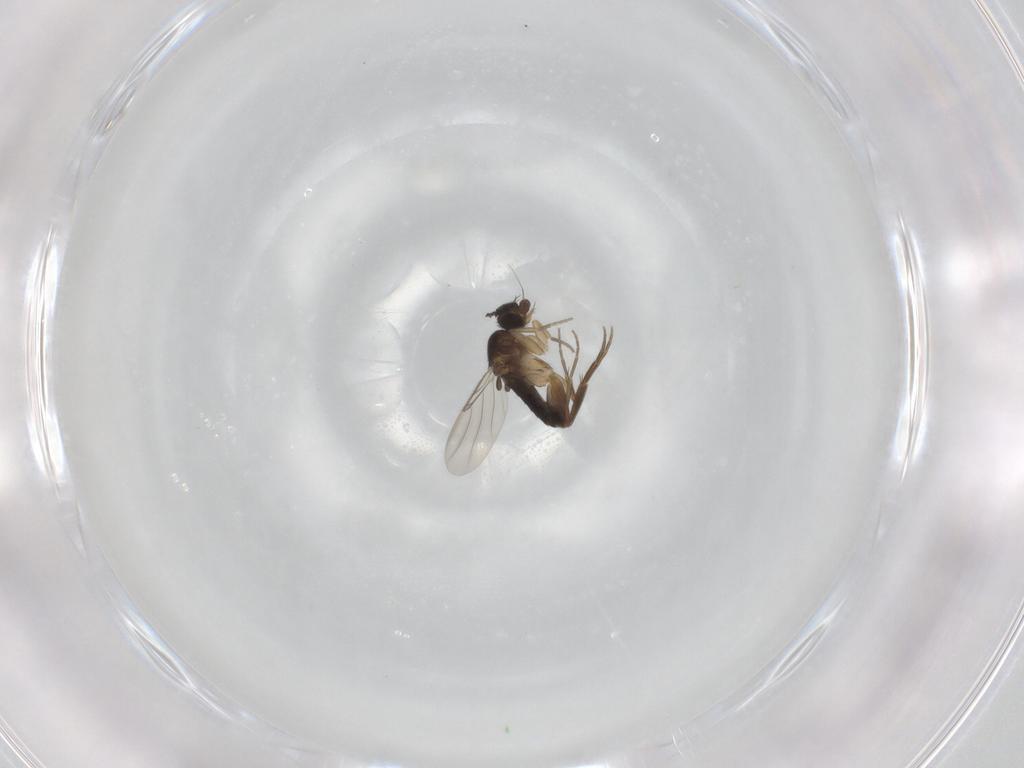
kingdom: Animalia
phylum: Arthropoda
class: Insecta
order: Diptera
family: Phoridae
